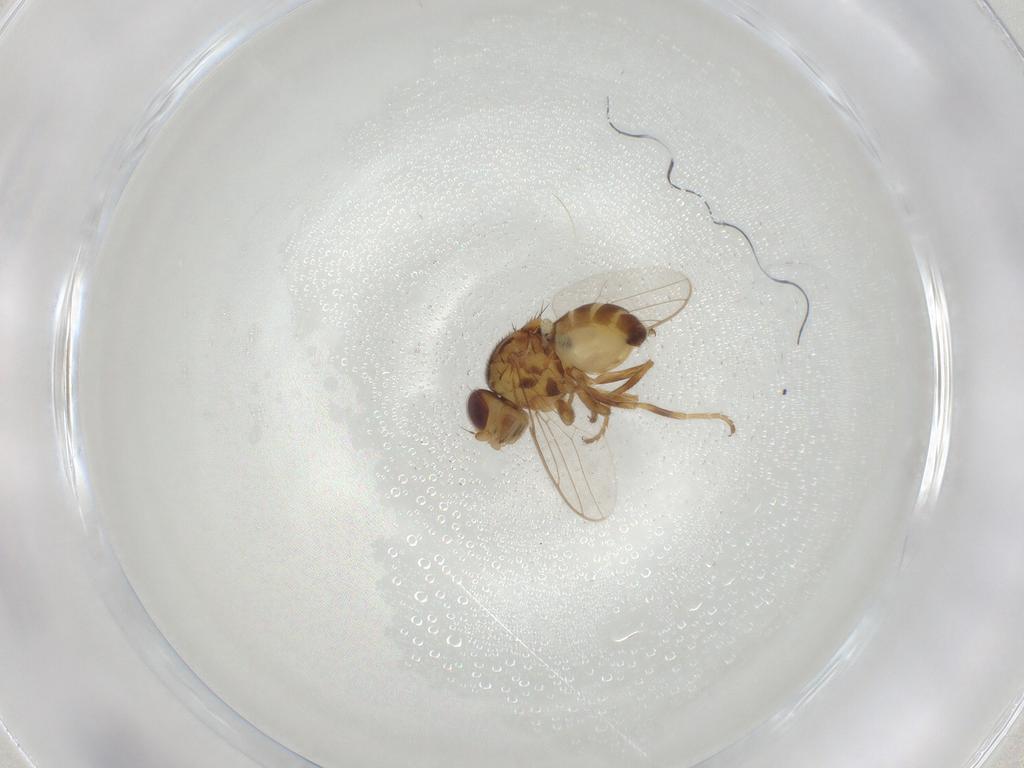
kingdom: Animalia
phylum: Arthropoda
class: Insecta
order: Diptera
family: Chloropidae
